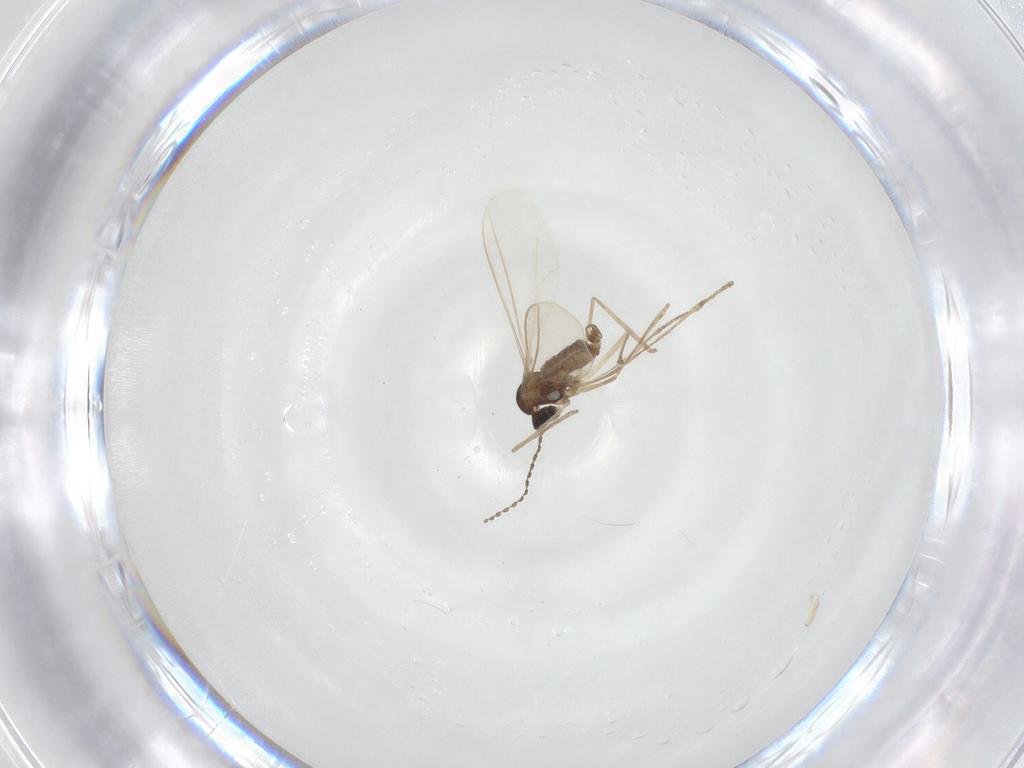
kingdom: Animalia
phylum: Arthropoda
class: Insecta
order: Diptera
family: Cecidomyiidae
